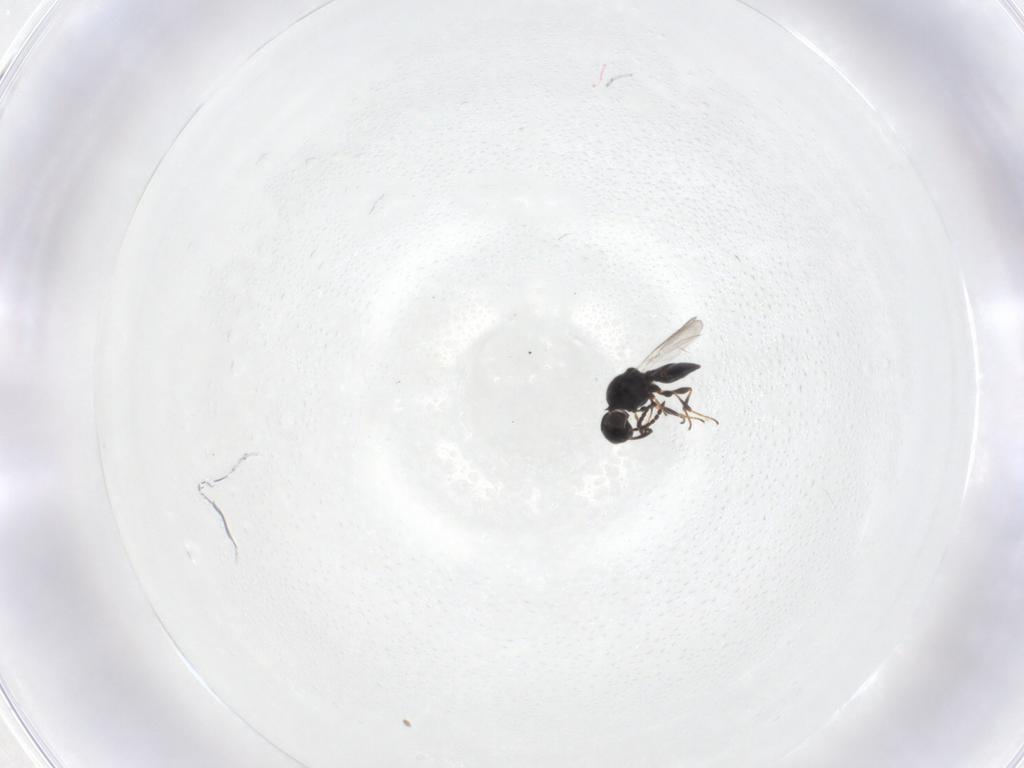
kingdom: Animalia
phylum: Arthropoda
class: Insecta
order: Hymenoptera
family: Platygastridae
